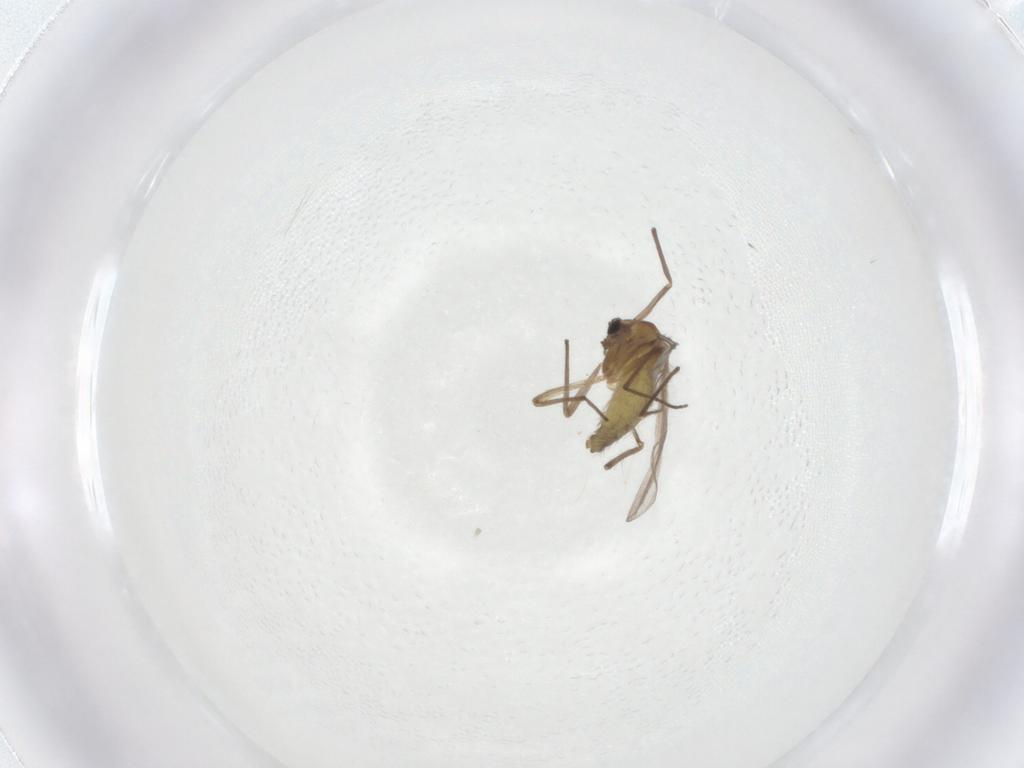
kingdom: Animalia
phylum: Arthropoda
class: Insecta
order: Diptera
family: Chironomidae
